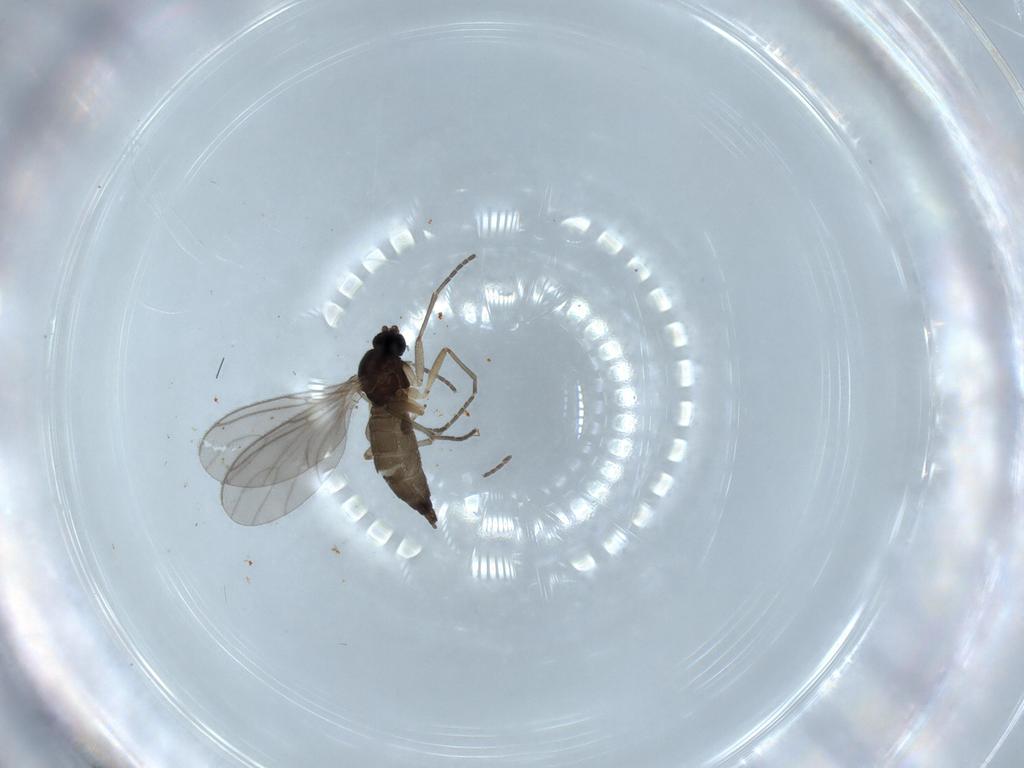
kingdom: Animalia
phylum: Arthropoda
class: Insecta
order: Diptera
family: Sciaridae
